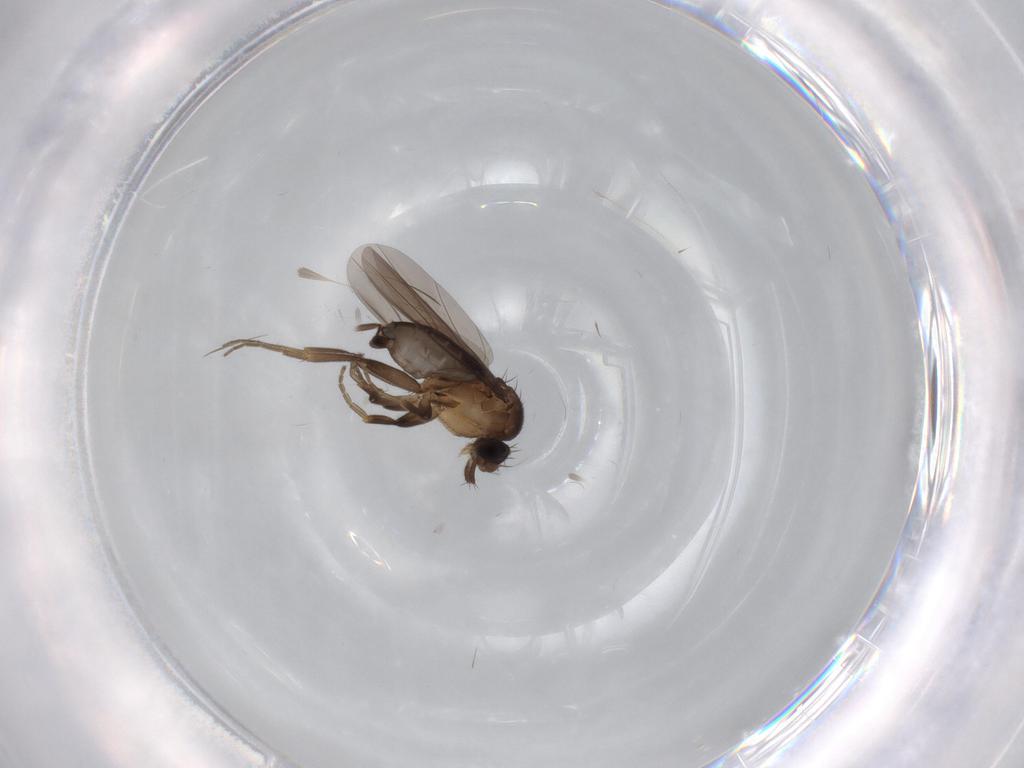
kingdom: Animalia
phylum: Arthropoda
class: Insecta
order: Diptera
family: Phoridae
